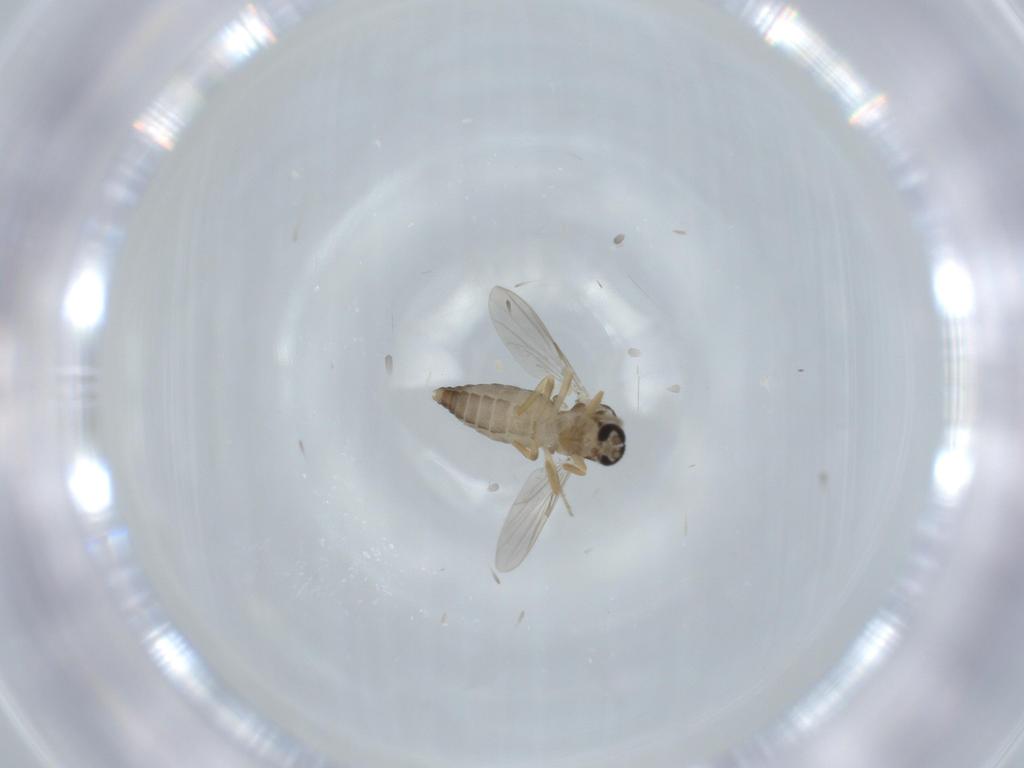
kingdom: Animalia
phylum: Arthropoda
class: Insecta
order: Diptera
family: Ceratopogonidae
